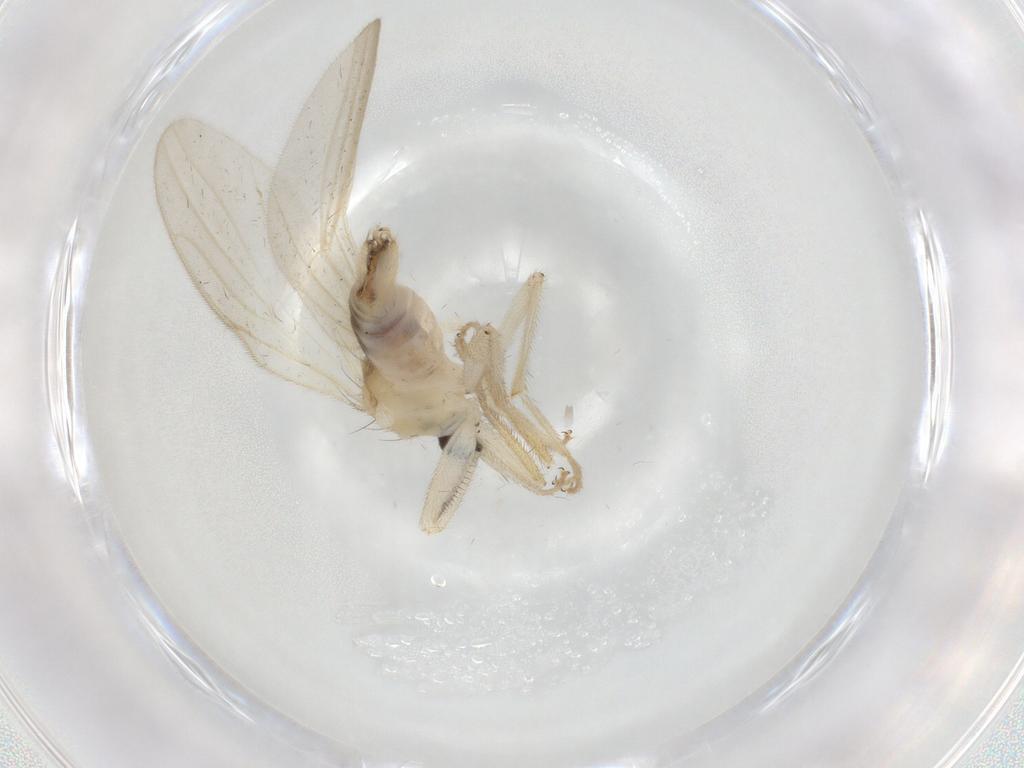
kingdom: Animalia
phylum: Arthropoda
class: Insecta
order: Diptera
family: Hybotidae
